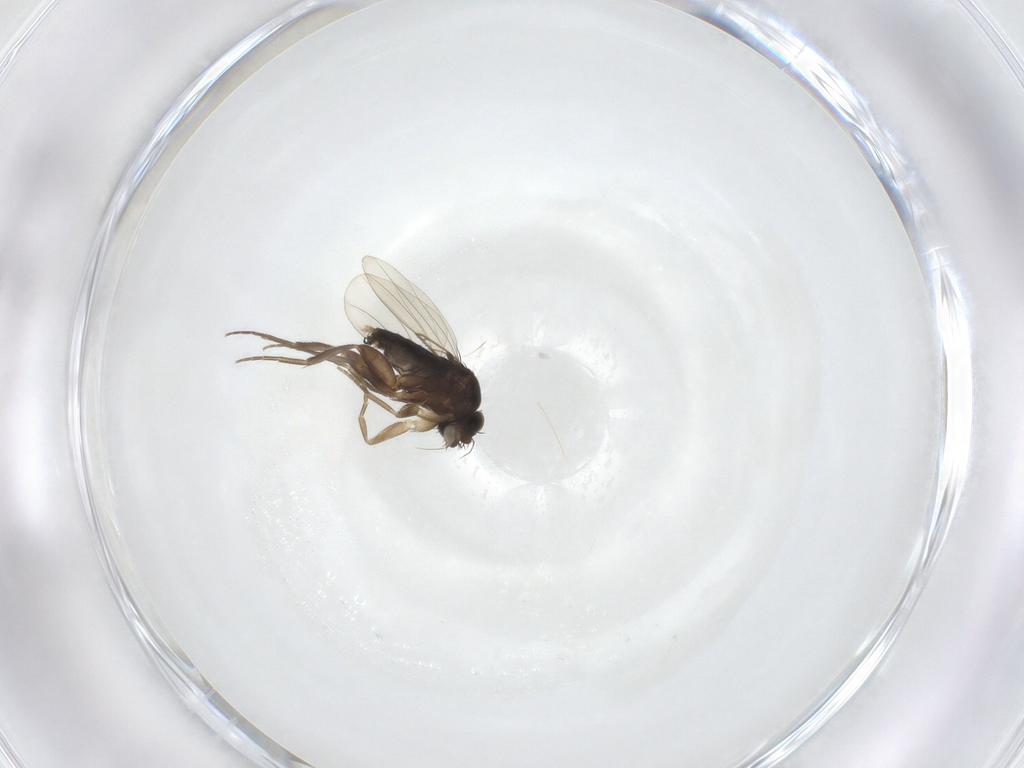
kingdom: Animalia
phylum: Arthropoda
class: Insecta
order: Diptera
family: Phoridae
